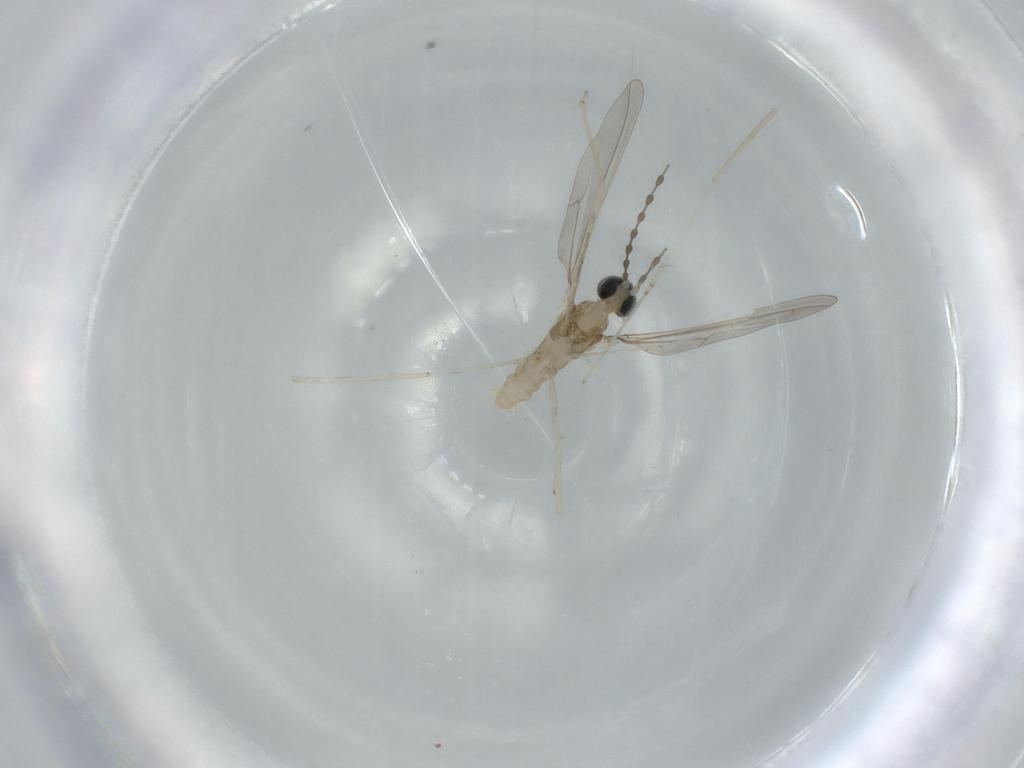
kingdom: Animalia
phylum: Arthropoda
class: Insecta
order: Diptera
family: Cecidomyiidae
